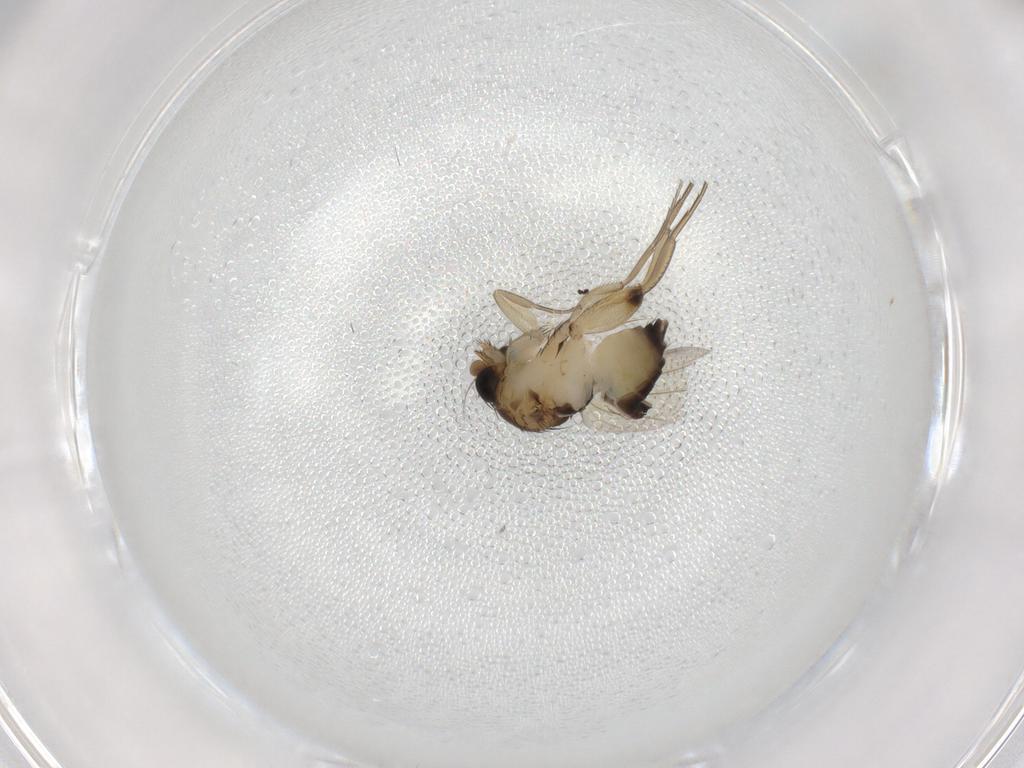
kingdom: Animalia
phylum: Arthropoda
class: Insecta
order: Diptera
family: Phoridae
